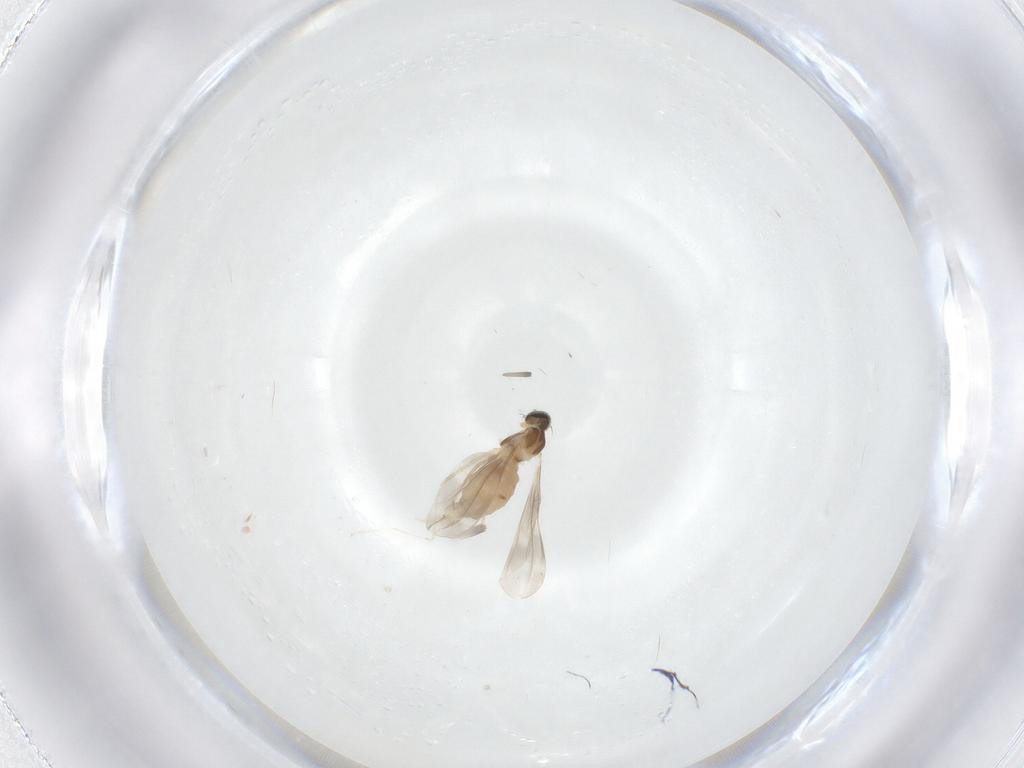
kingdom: Animalia
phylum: Arthropoda
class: Insecta
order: Diptera
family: Cecidomyiidae
